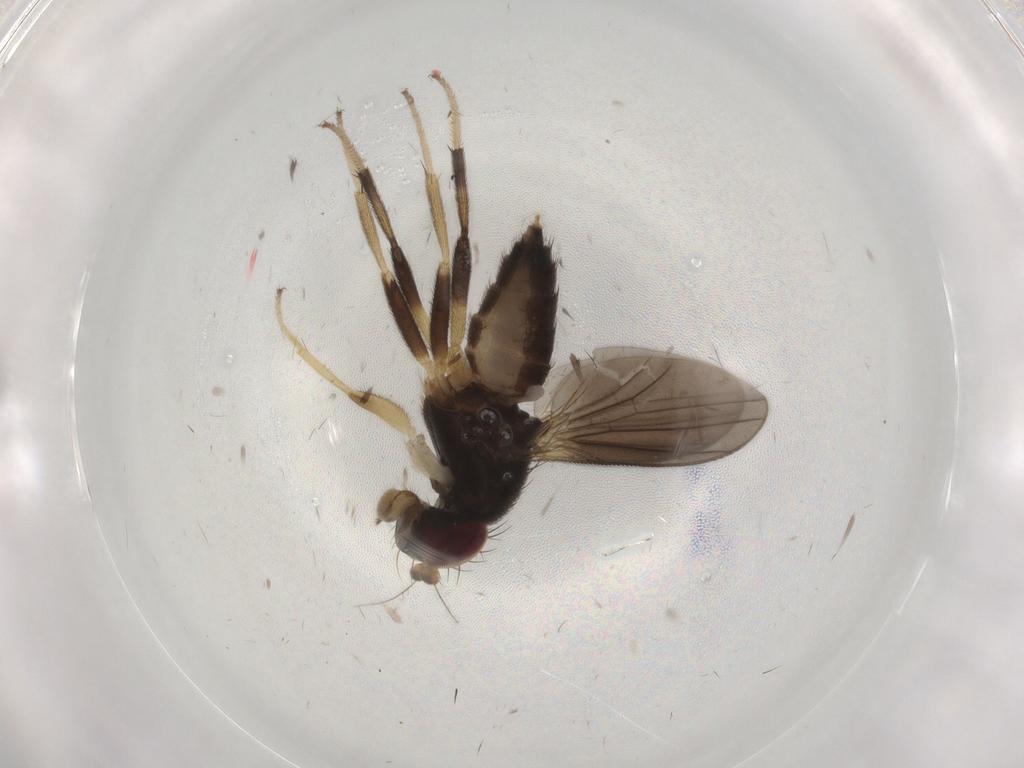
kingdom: Animalia
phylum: Arthropoda
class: Insecta
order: Diptera
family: Clusiidae
